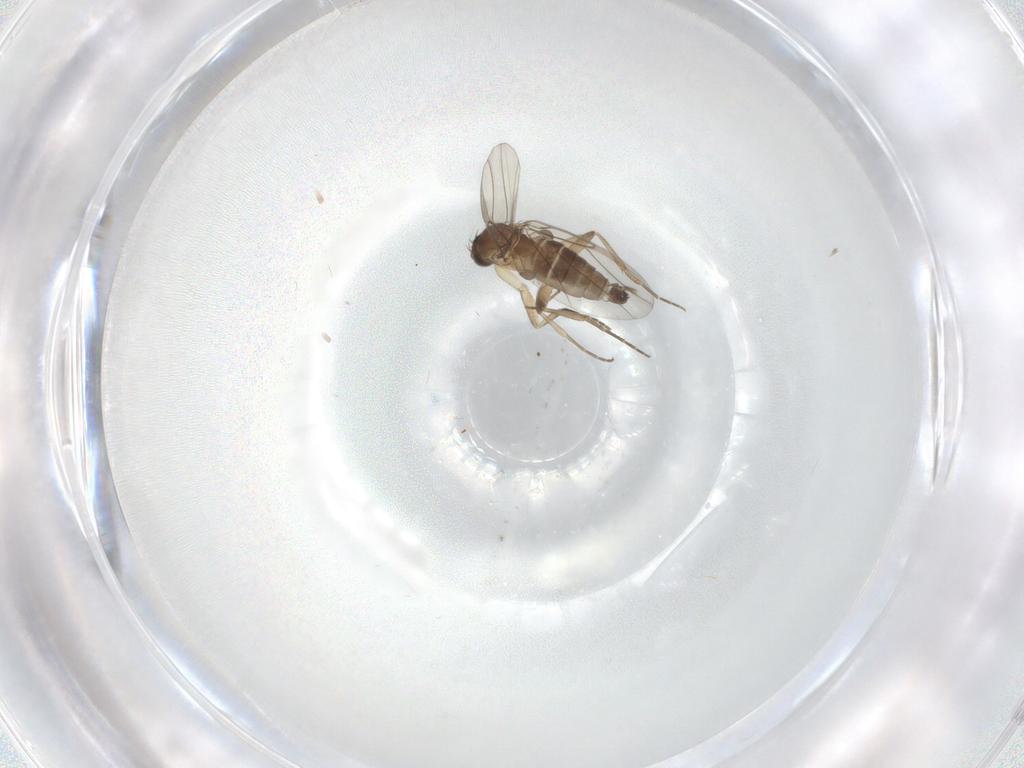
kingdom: Animalia
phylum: Arthropoda
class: Insecta
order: Diptera
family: Phoridae
